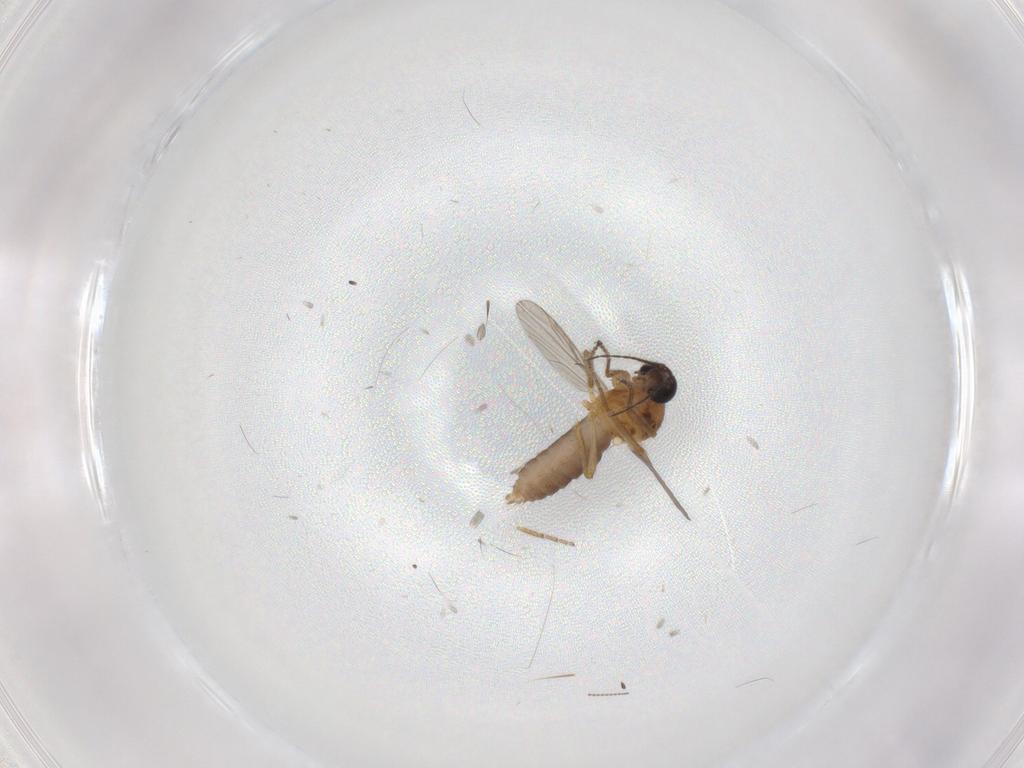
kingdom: Animalia
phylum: Arthropoda
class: Insecta
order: Diptera
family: Ceratopogonidae
